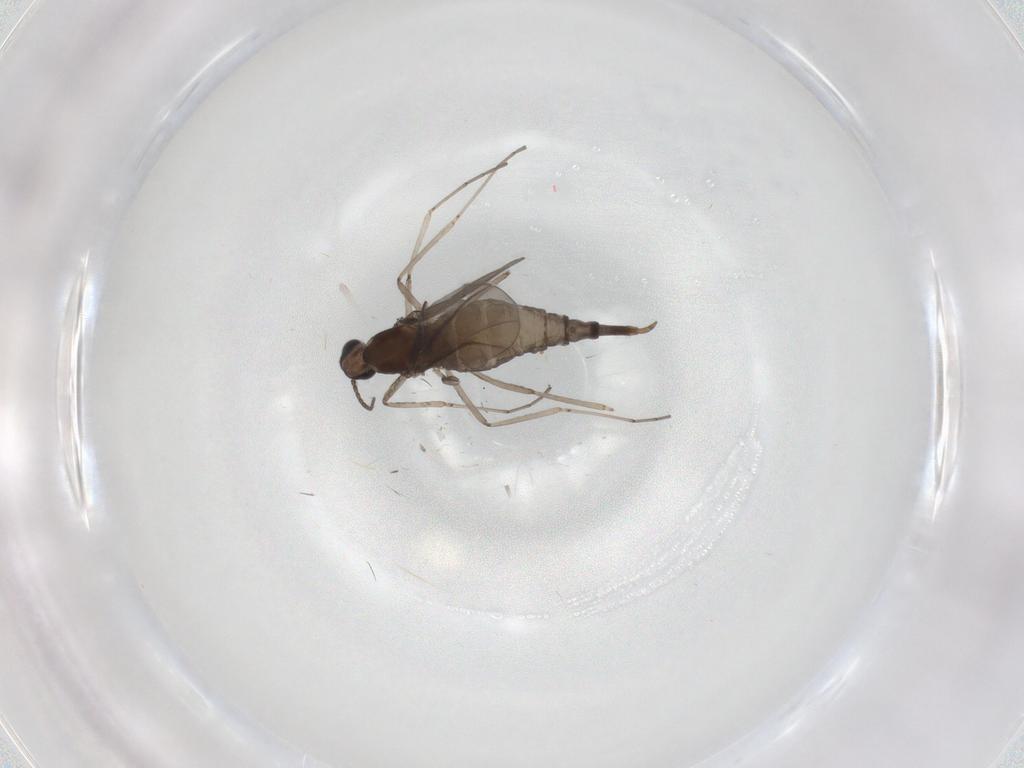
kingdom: Animalia
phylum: Arthropoda
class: Insecta
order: Diptera
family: Cecidomyiidae
